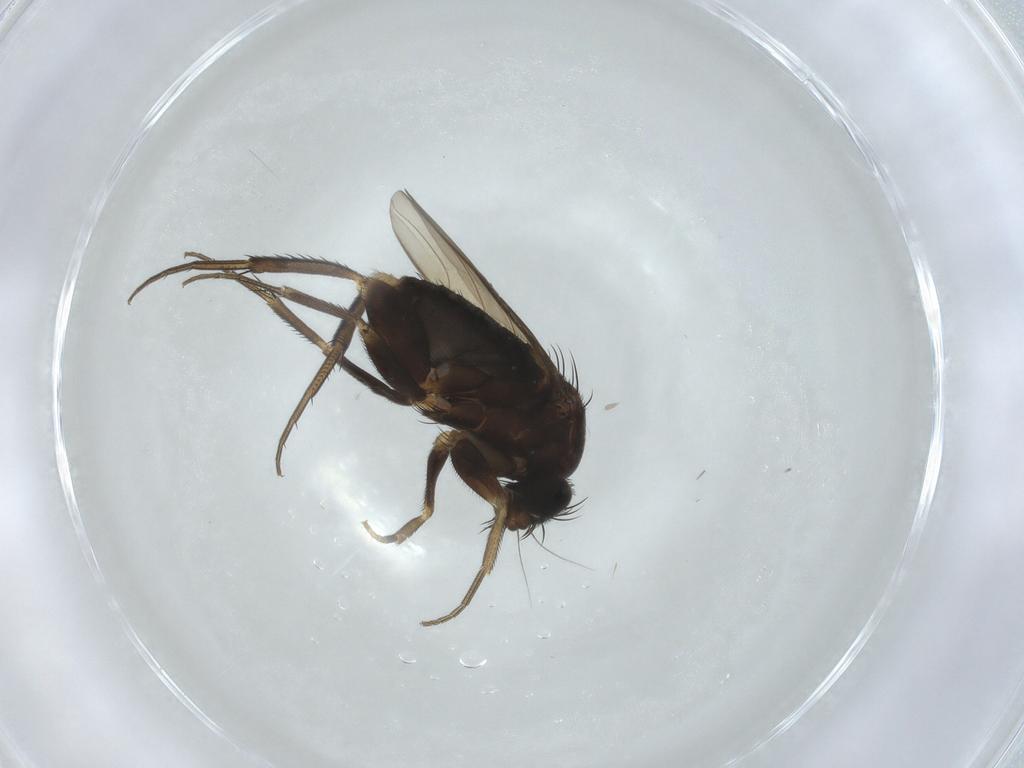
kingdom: Animalia
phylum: Arthropoda
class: Insecta
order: Diptera
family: Phoridae
